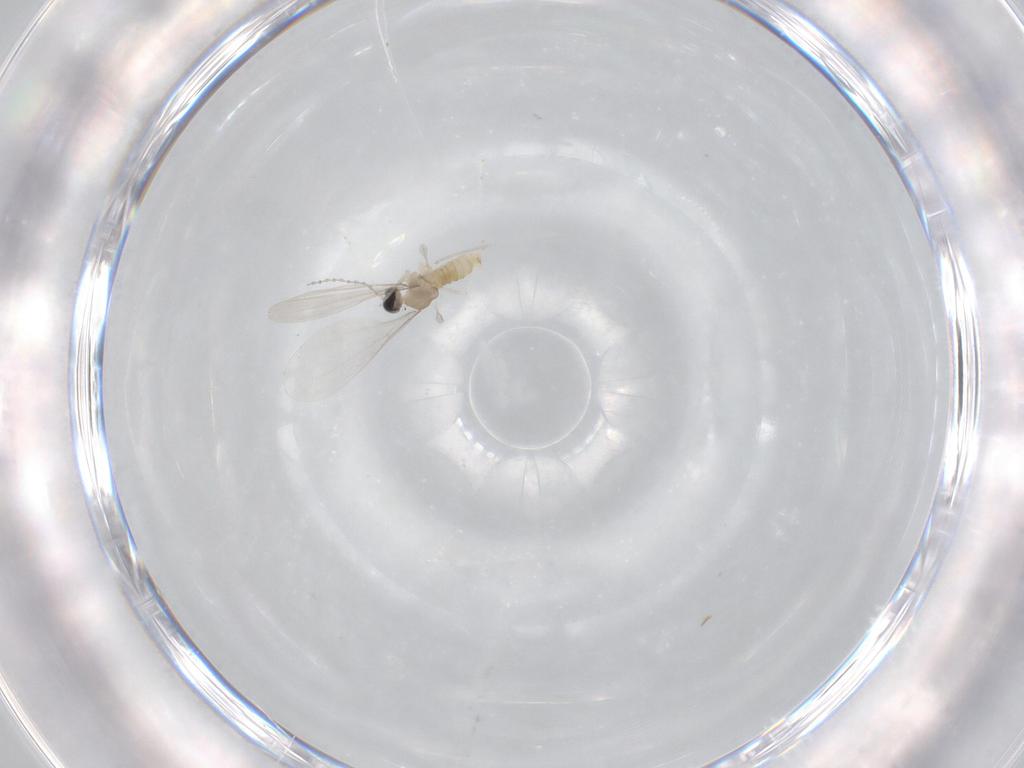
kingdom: Animalia
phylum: Arthropoda
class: Insecta
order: Diptera
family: Cecidomyiidae
